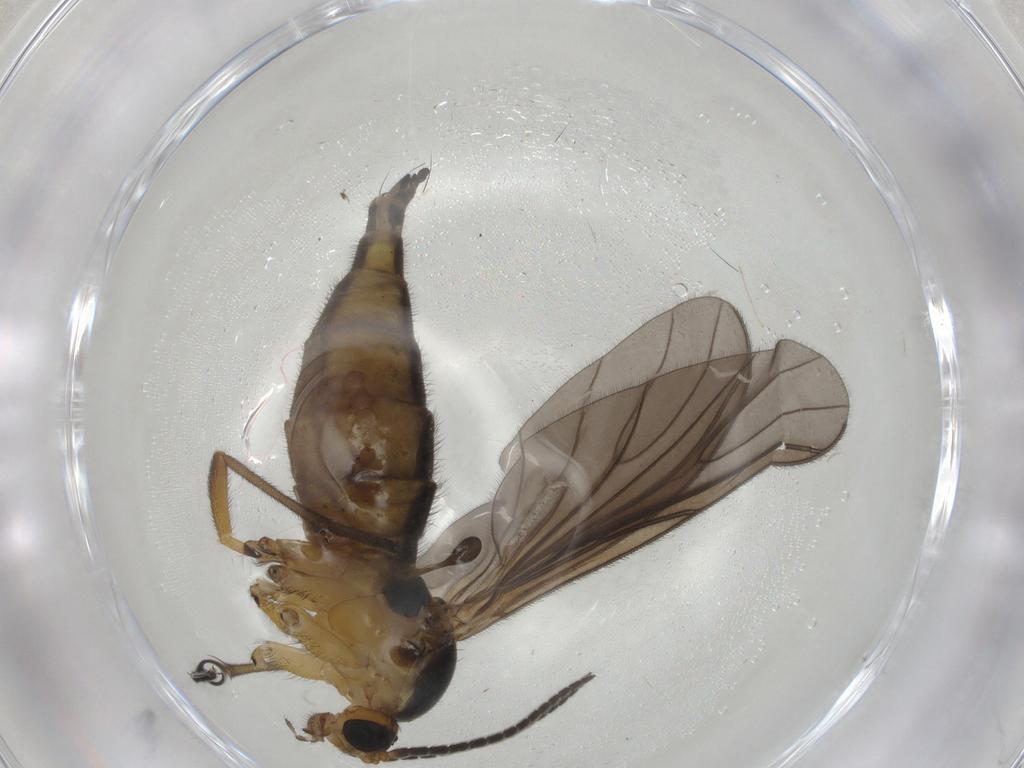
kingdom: Animalia
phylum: Arthropoda
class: Insecta
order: Diptera
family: Sciaridae
